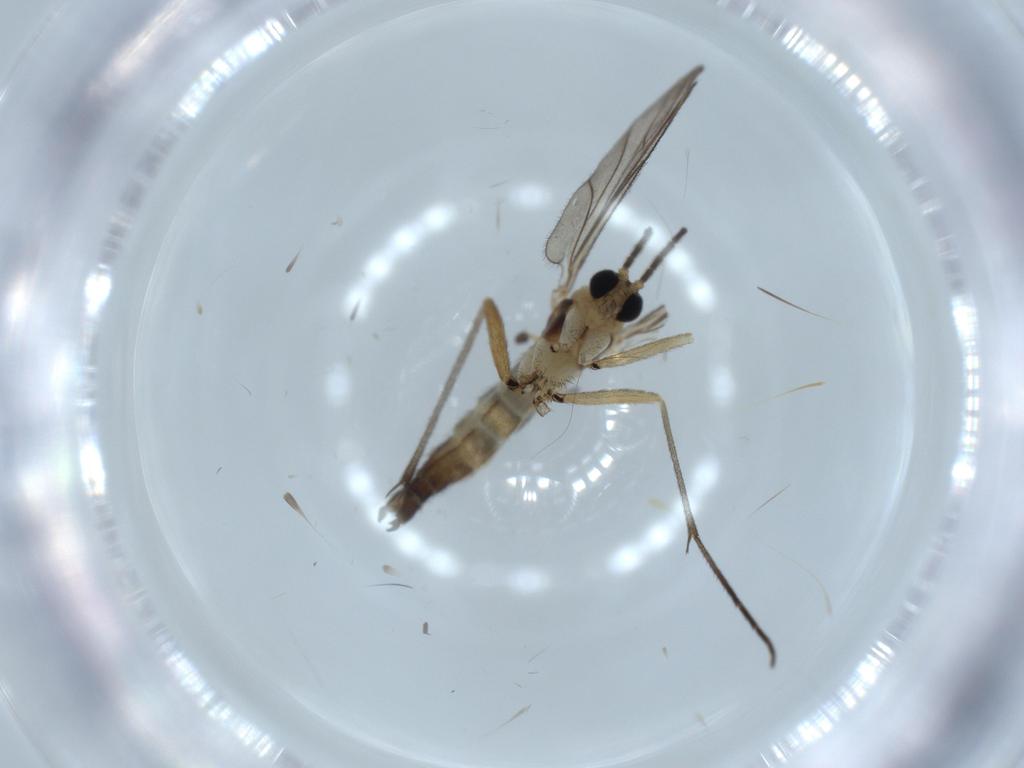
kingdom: Animalia
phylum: Arthropoda
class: Insecta
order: Diptera
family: Sciaridae
